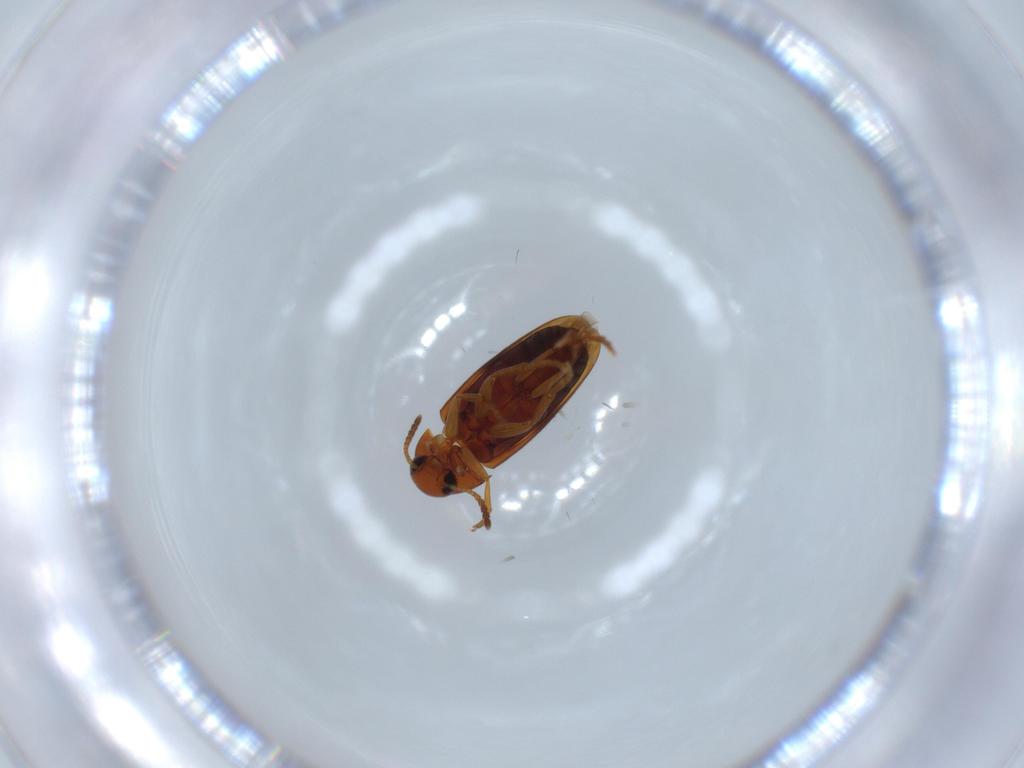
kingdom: Animalia
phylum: Arthropoda
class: Insecta
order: Coleoptera
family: Scraptiidae
